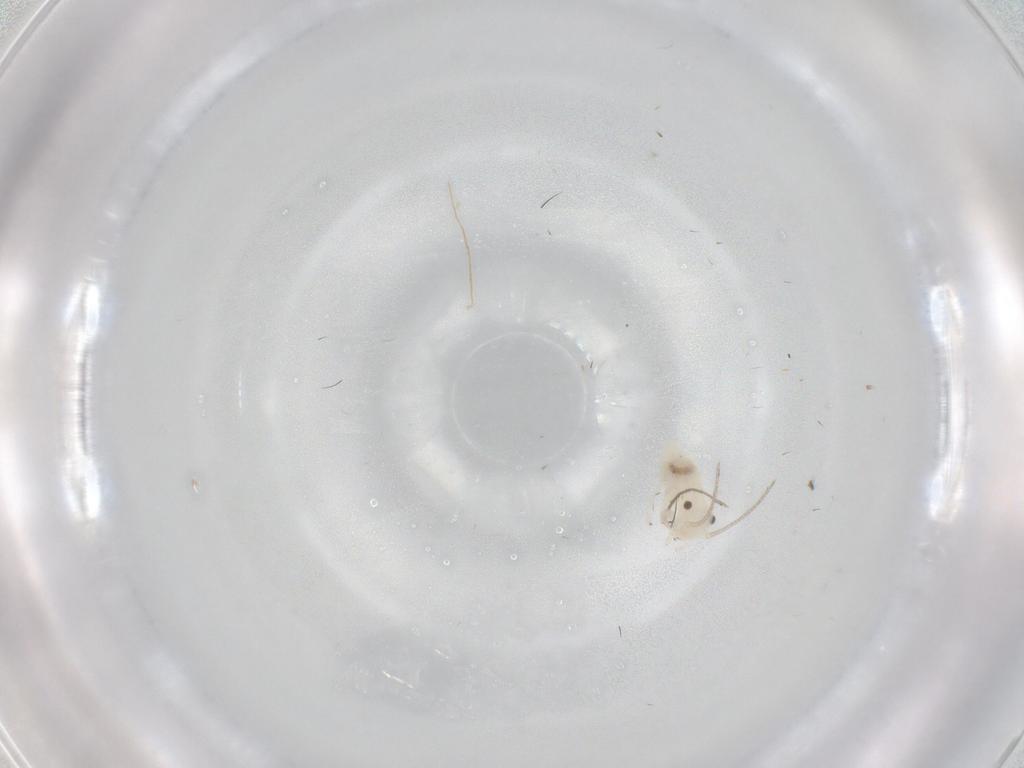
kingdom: Animalia
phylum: Arthropoda
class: Insecta
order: Psocodea
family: Caeciliusidae
